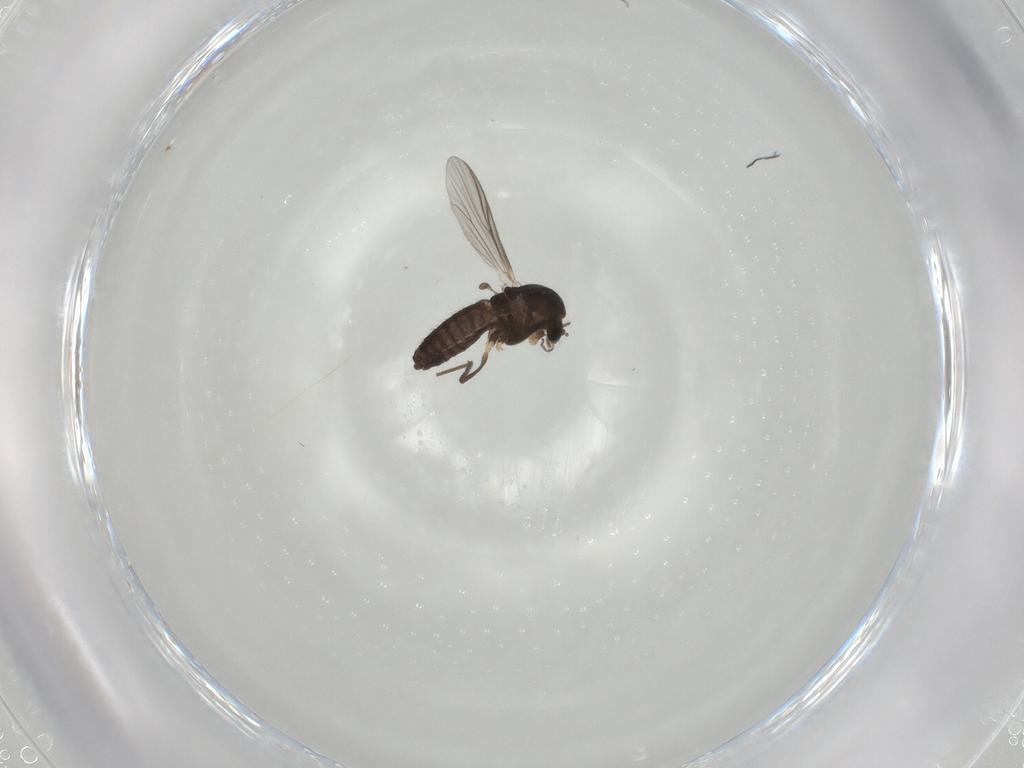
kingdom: Animalia
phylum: Arthropoda
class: Insecta
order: Diptera
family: Chironomidae
